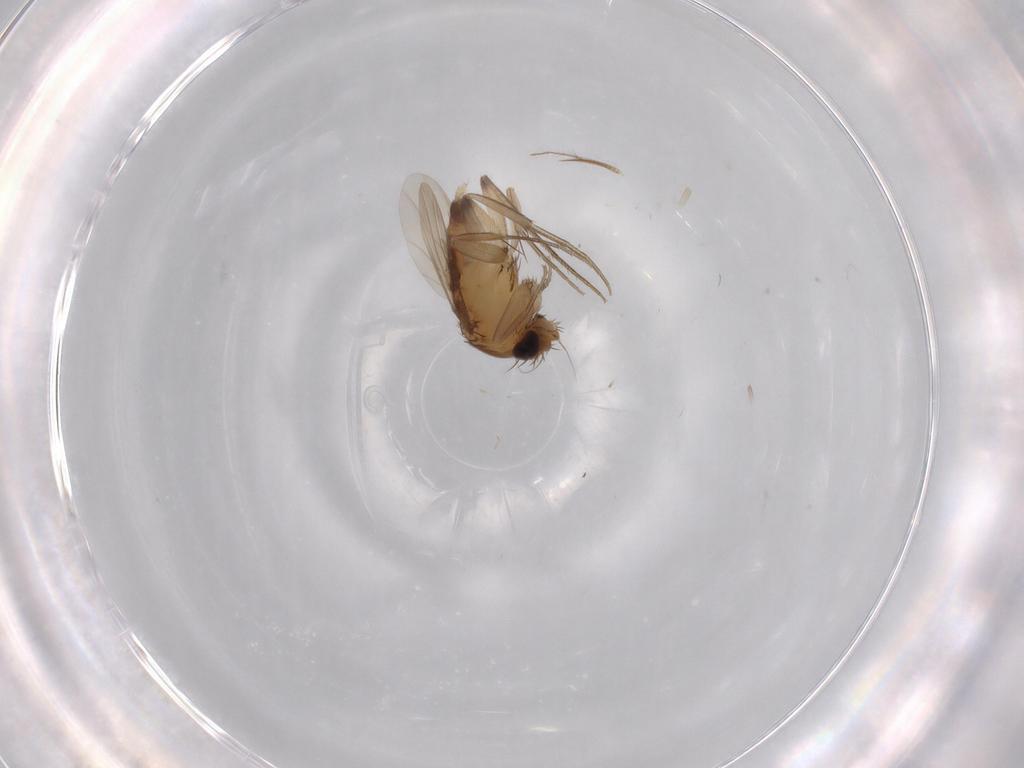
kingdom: Animalia
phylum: Arthropoda
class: Insecta
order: Diptera
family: Phoridae
